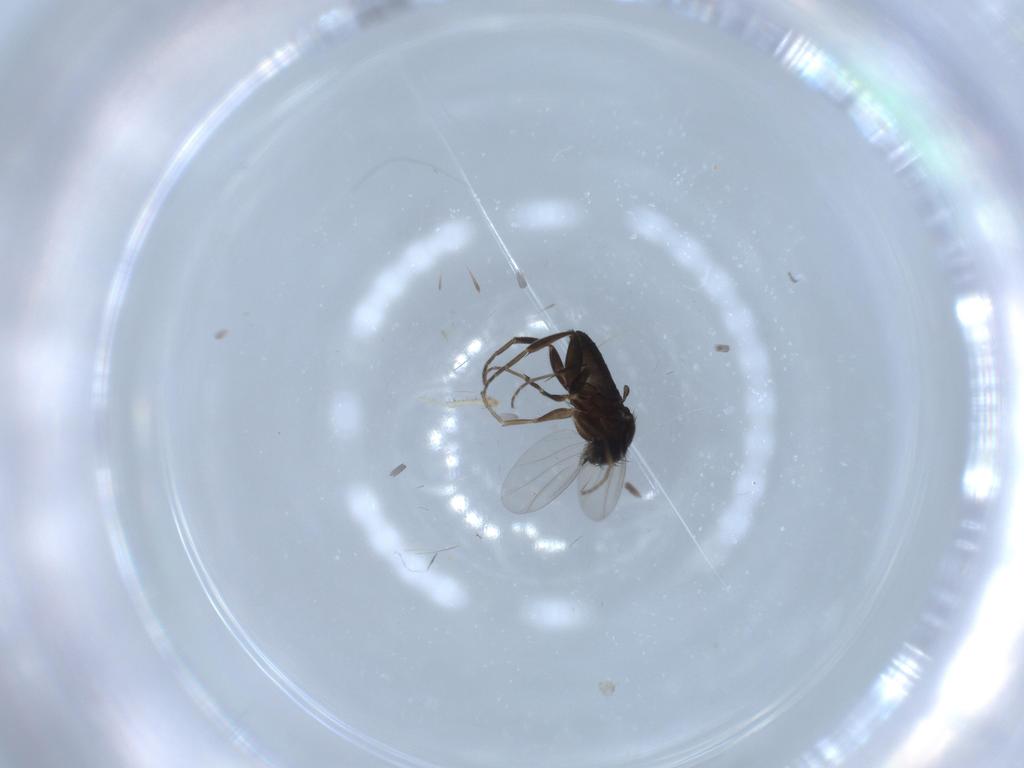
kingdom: Animalia
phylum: Arthropoda
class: Insecta
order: Diptera
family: Phoridae
